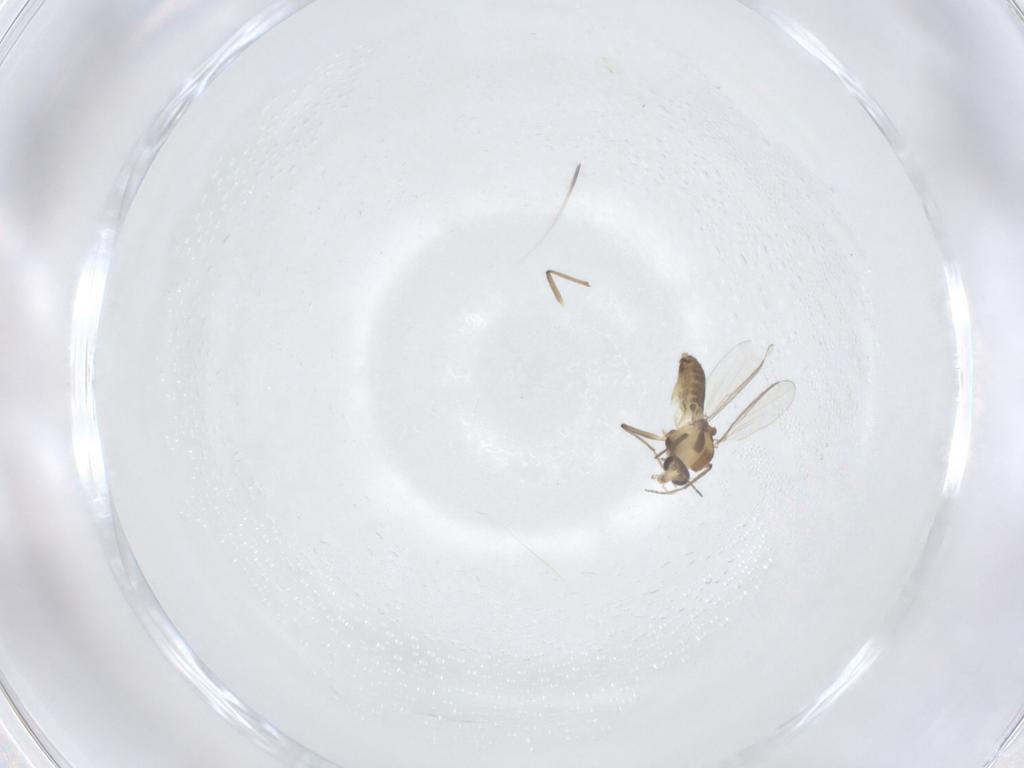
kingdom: Animalia
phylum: Arthropoda
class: Insecta
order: Diptera
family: Chironomidae
